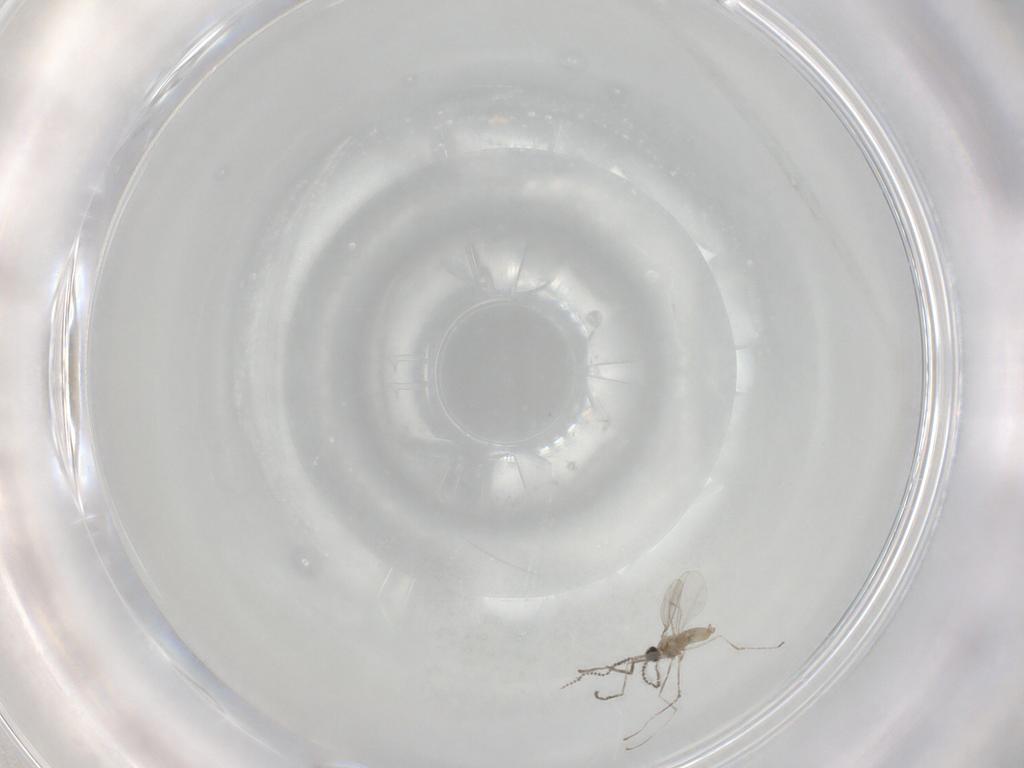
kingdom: Animalia
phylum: Arthropoda
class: Insecta
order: Diptera
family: Cecidomyiidae
